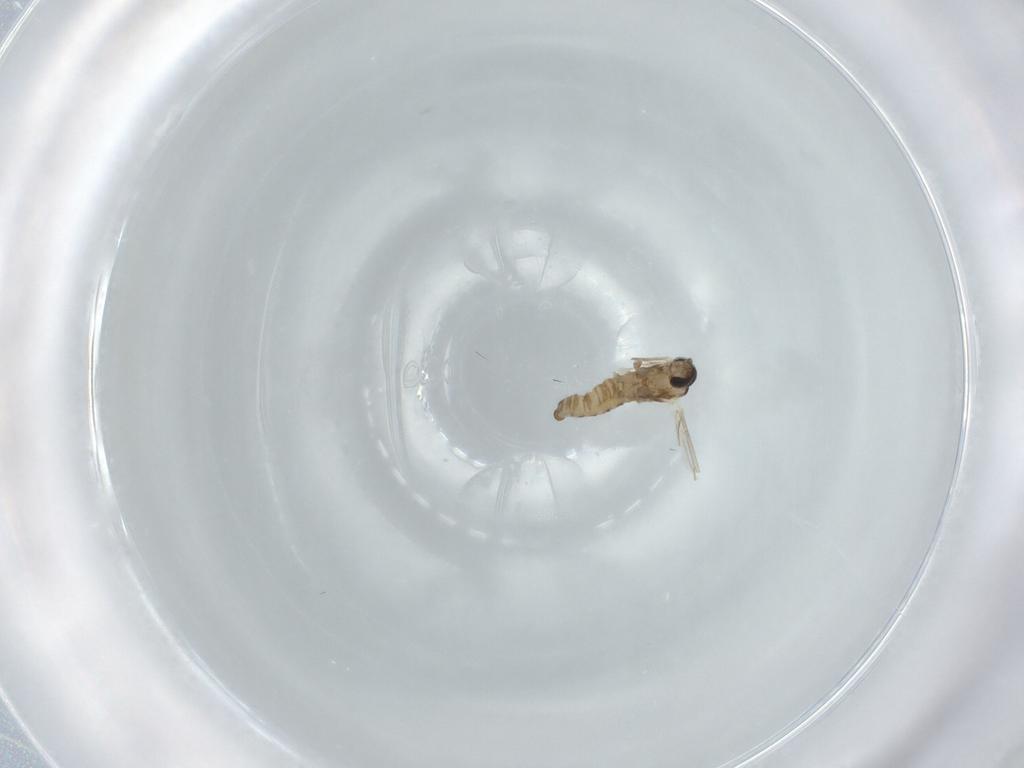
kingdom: Animalia
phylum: Arthropoda
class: Insecta
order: Diptera
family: Cecidomyiidae
